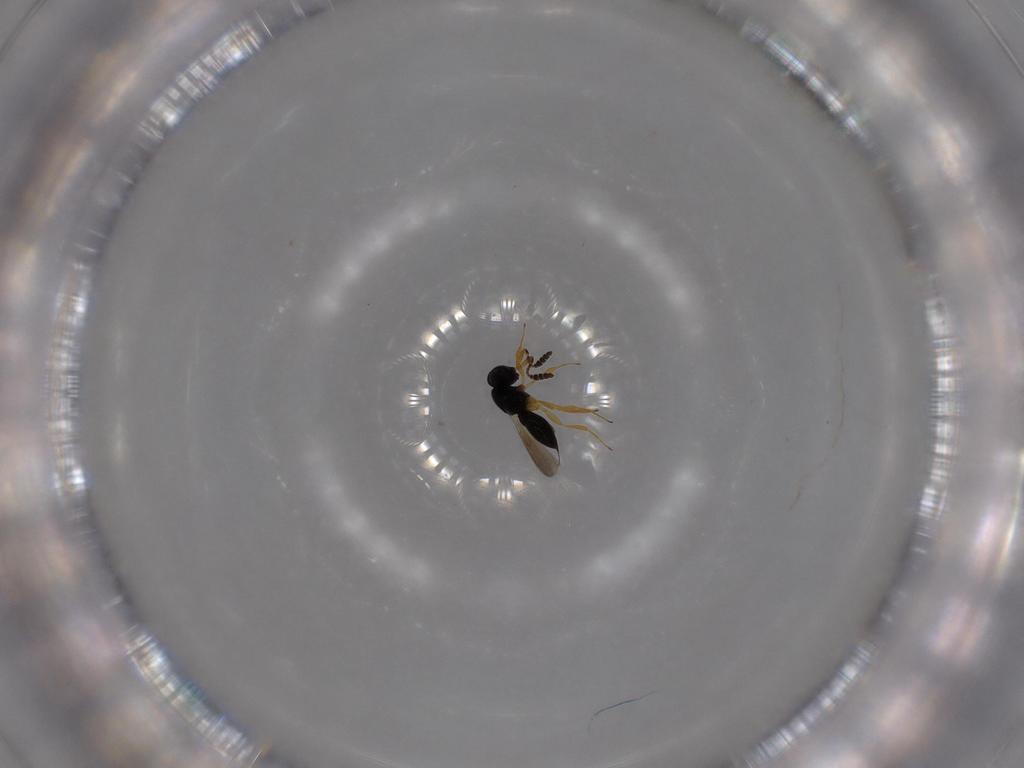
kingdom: Animalia
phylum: Arthropoda
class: Insecta
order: Hymenoptera
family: Scelionidae
